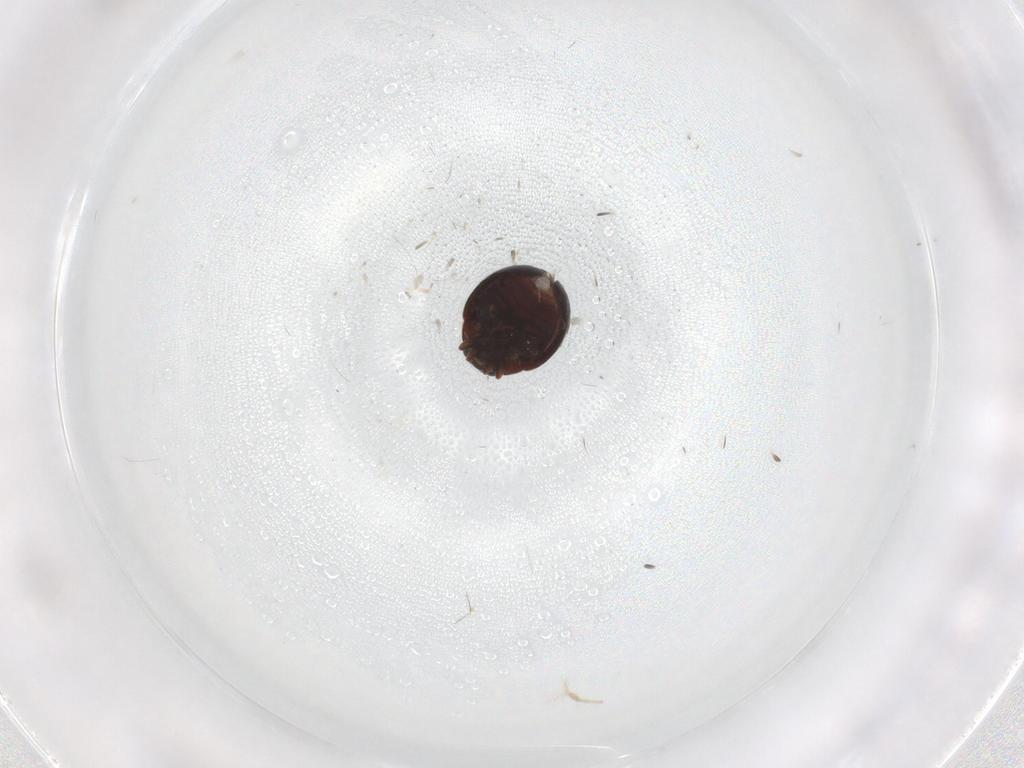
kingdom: Animalia
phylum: Arthropoda
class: Insecta
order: Coleoptera
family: Anamorphidae
